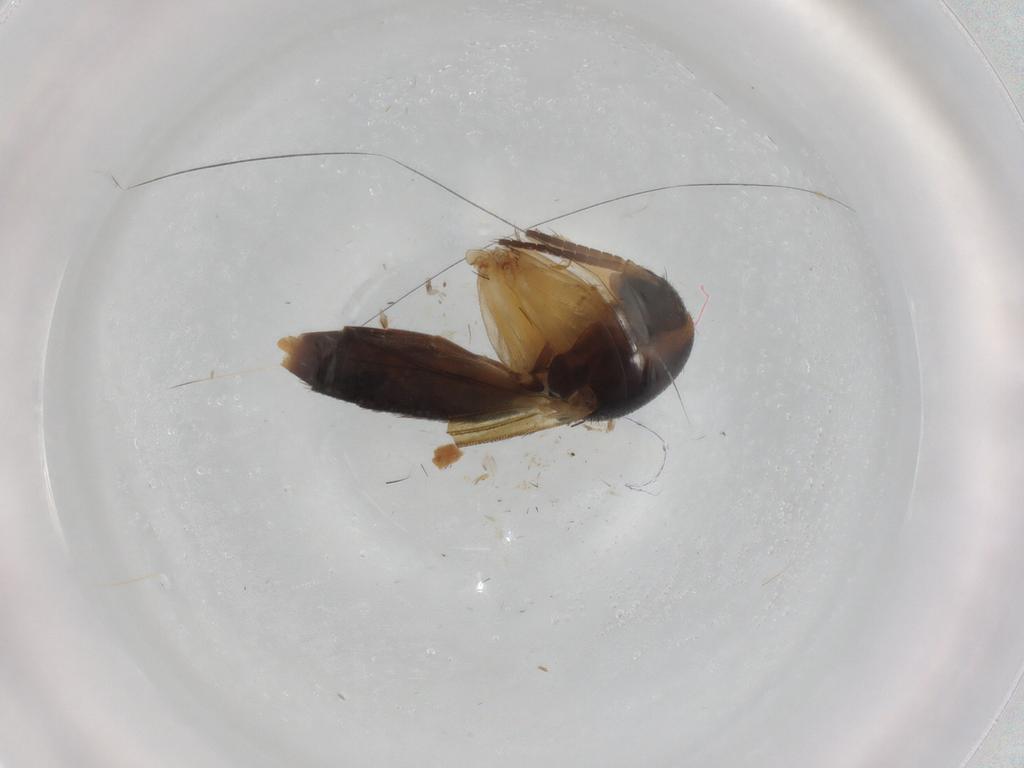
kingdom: Animalia
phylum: Arthropoda
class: Insecta
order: Diptera
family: Mycetophilidae
